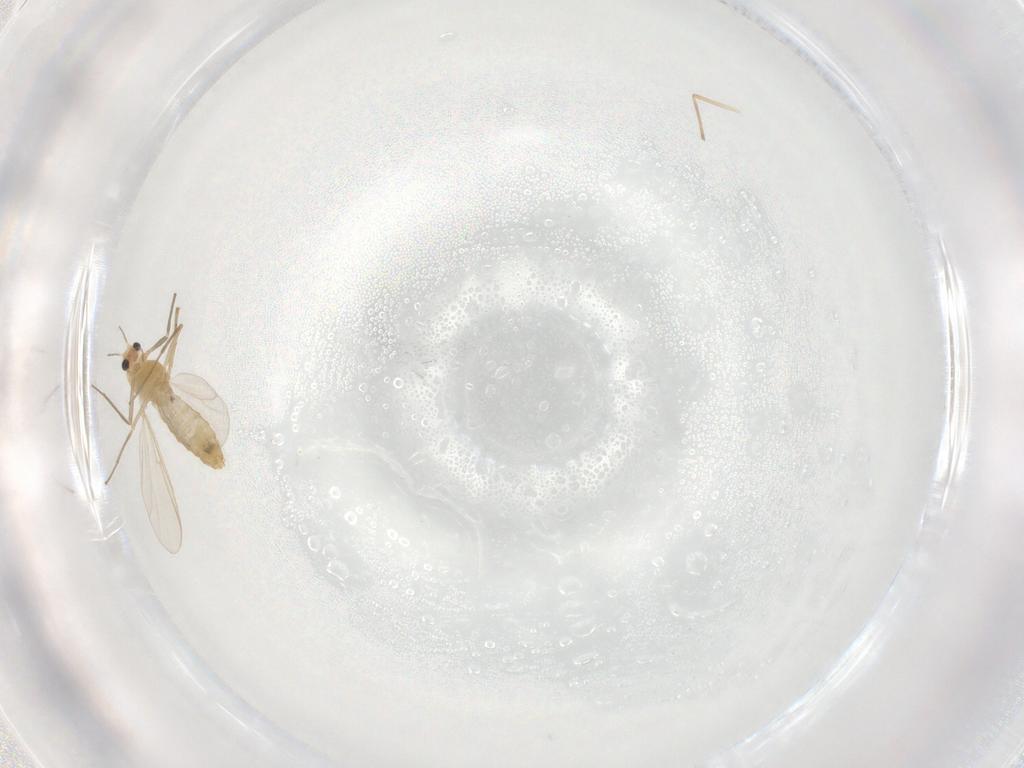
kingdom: Animalia
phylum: Arthropoda
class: Insecta
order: Diptera
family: Chironomidae
